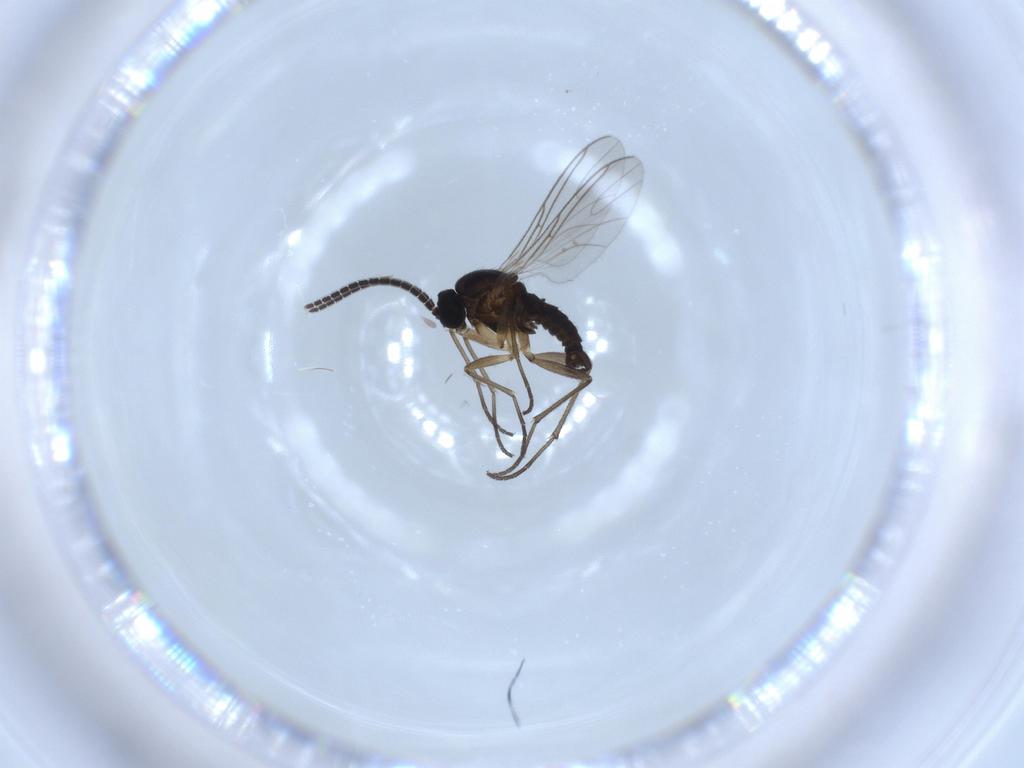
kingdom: Animalia
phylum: Arthropoda
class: Insecta
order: Diptera
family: Sciaridae
